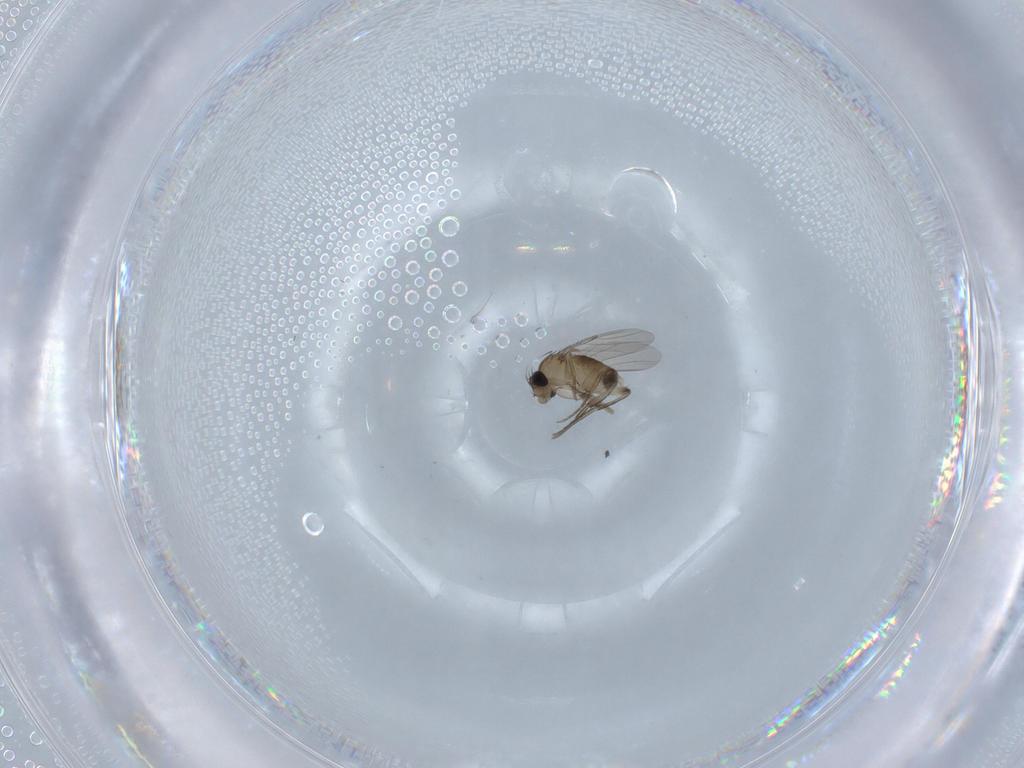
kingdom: Animalia
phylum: Arthropoda
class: Insecta
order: Diptera
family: Phoridae
